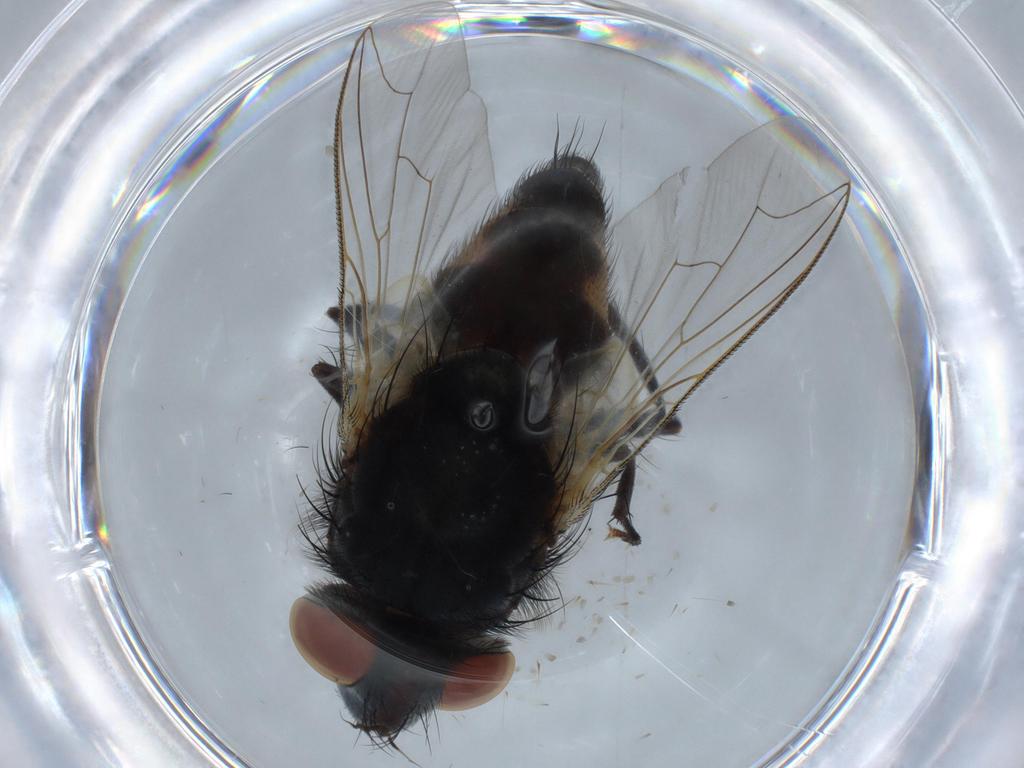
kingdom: Animalia
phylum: Arthropoda
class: Insecta
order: Diptera
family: Sarcophagidae
